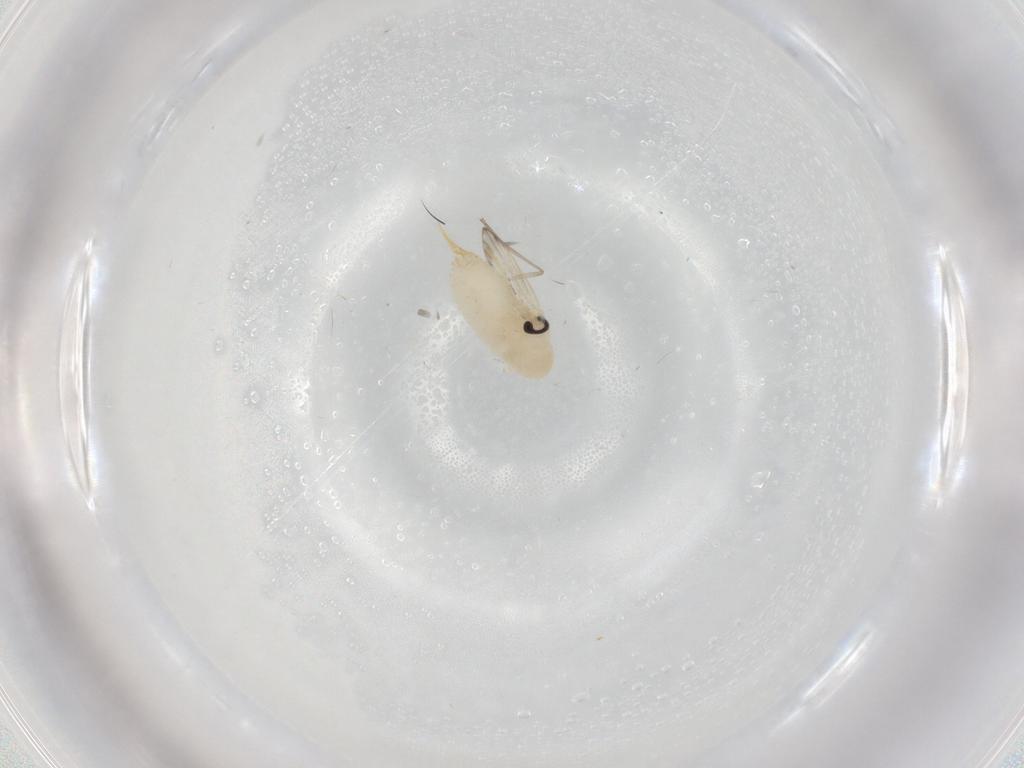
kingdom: Animalia
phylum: Arthropoda
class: Insecta
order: Diptera
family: Psychodidae
